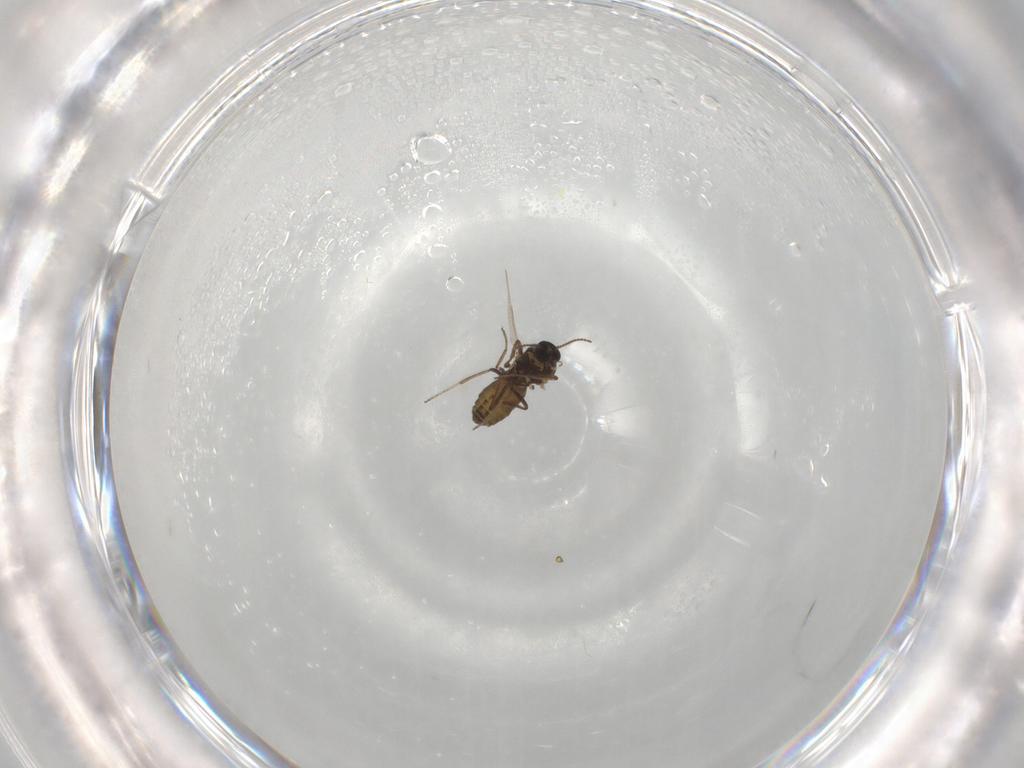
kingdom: Animalia
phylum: Arthropoda
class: Insecta
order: Diptera
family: Ceratopogonidae
